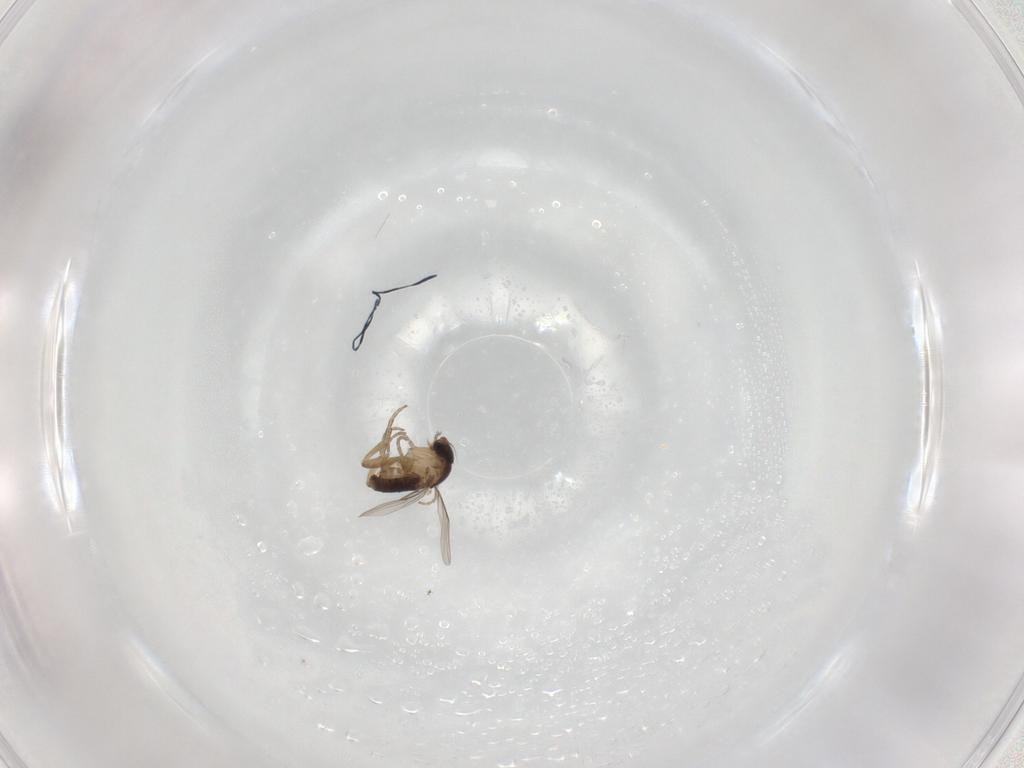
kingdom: Animalia
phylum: Arthropoda
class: Insecta
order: Diptera
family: Phoridae
